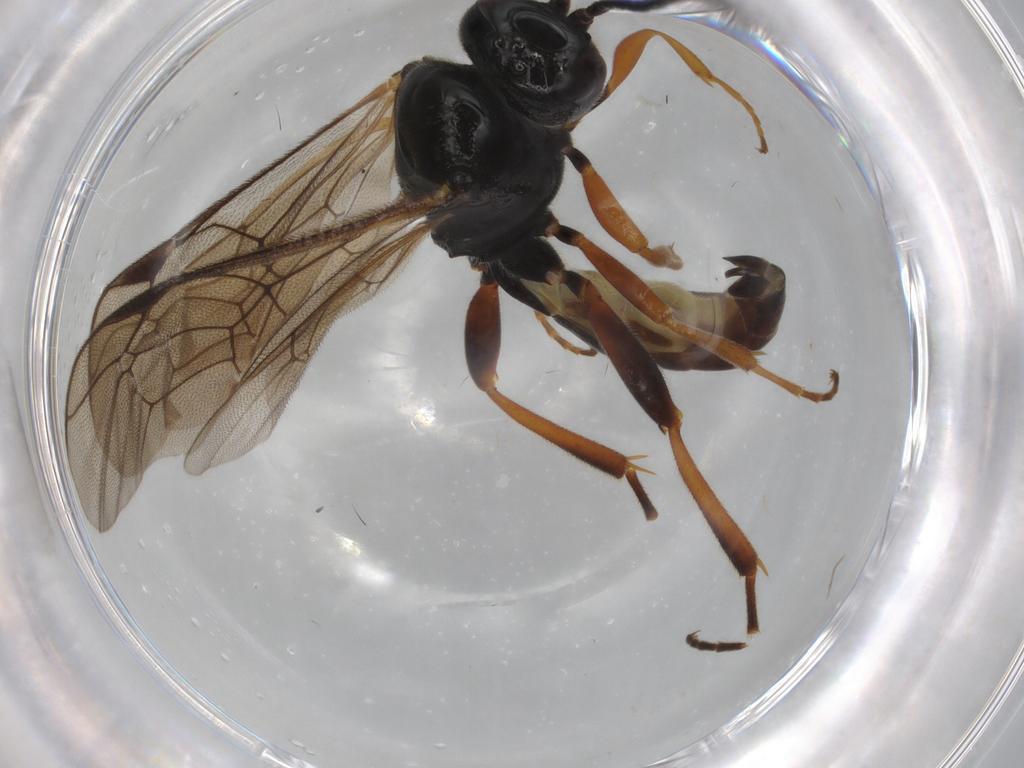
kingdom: Animalia
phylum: Arthropoda
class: Insecta
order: Hymenoptera
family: Ichneumonidae
